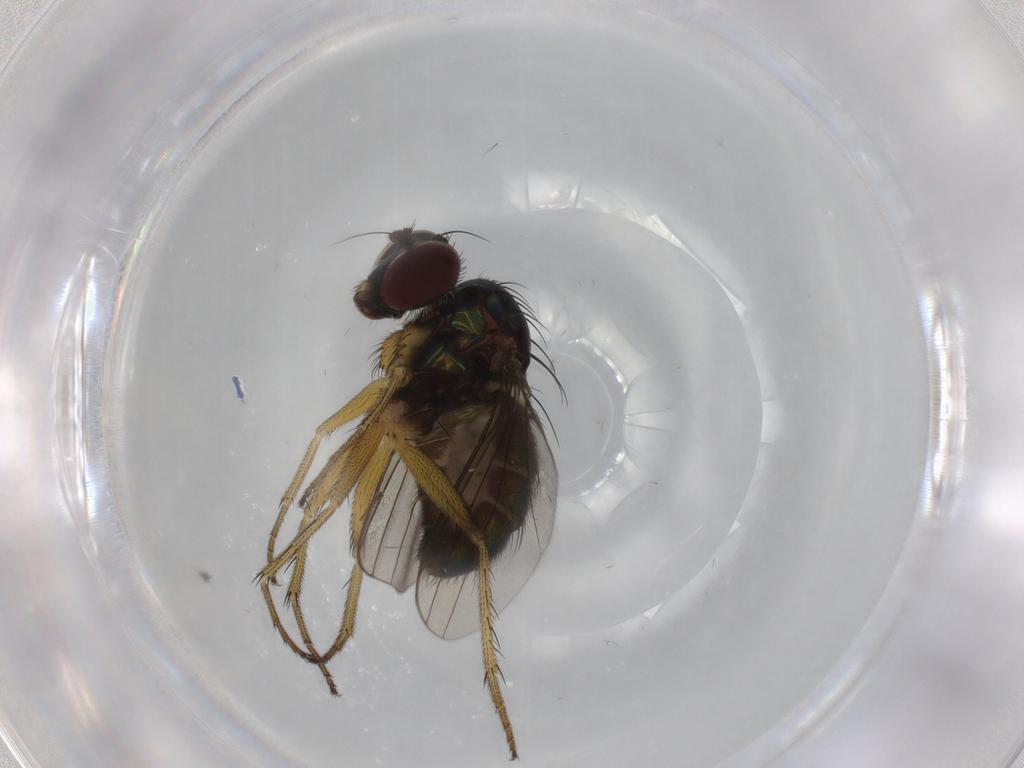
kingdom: Animalia
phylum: Arthropoda
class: Insecta
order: Diptera
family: Dolichopodidae
